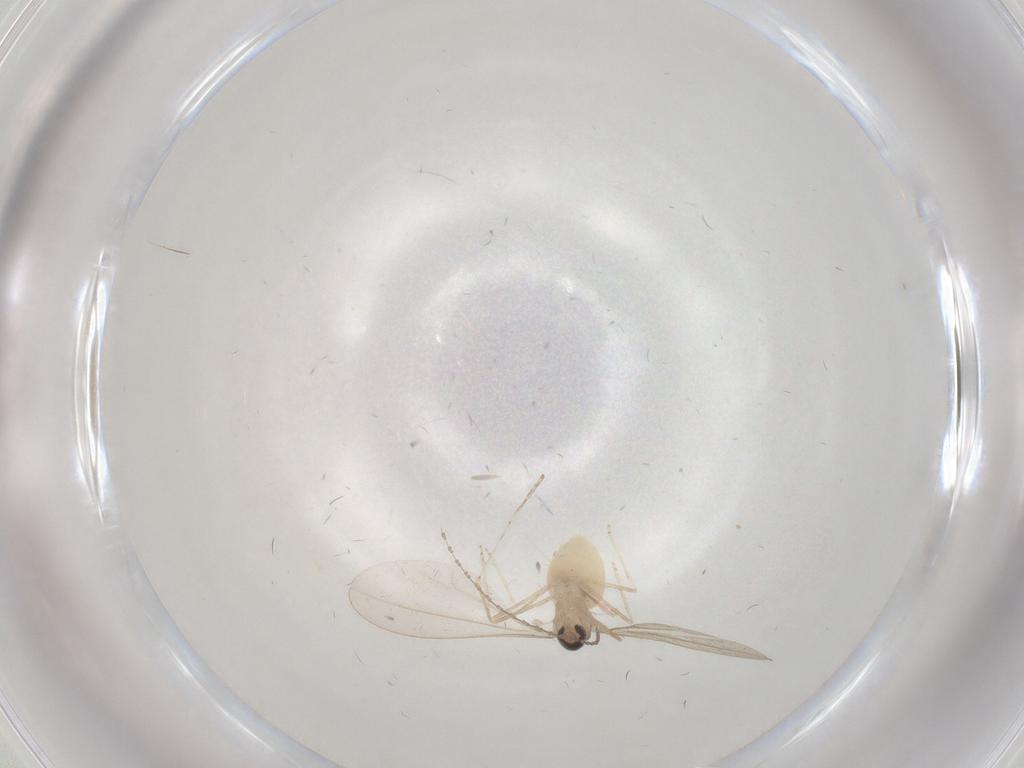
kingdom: Animalia
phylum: Arthropoda
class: Insecta
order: Diptera
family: Cecidomyiidae
